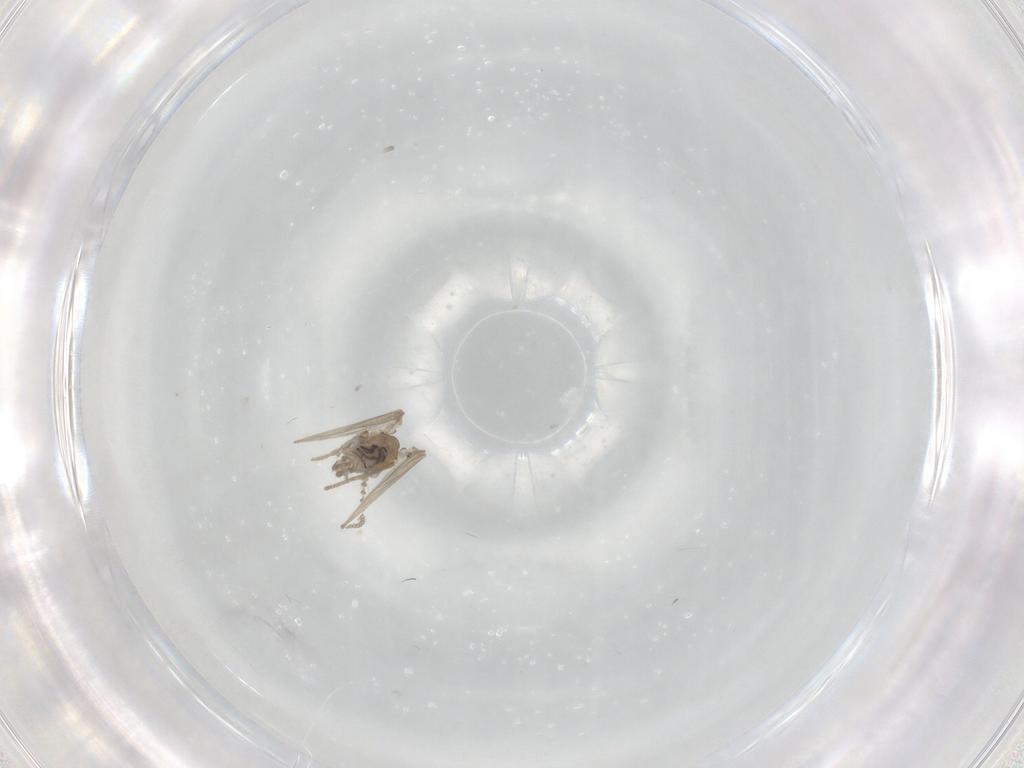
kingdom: Animalia
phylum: Arthropoda
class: Insecta
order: Diptera
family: Psychodidae
